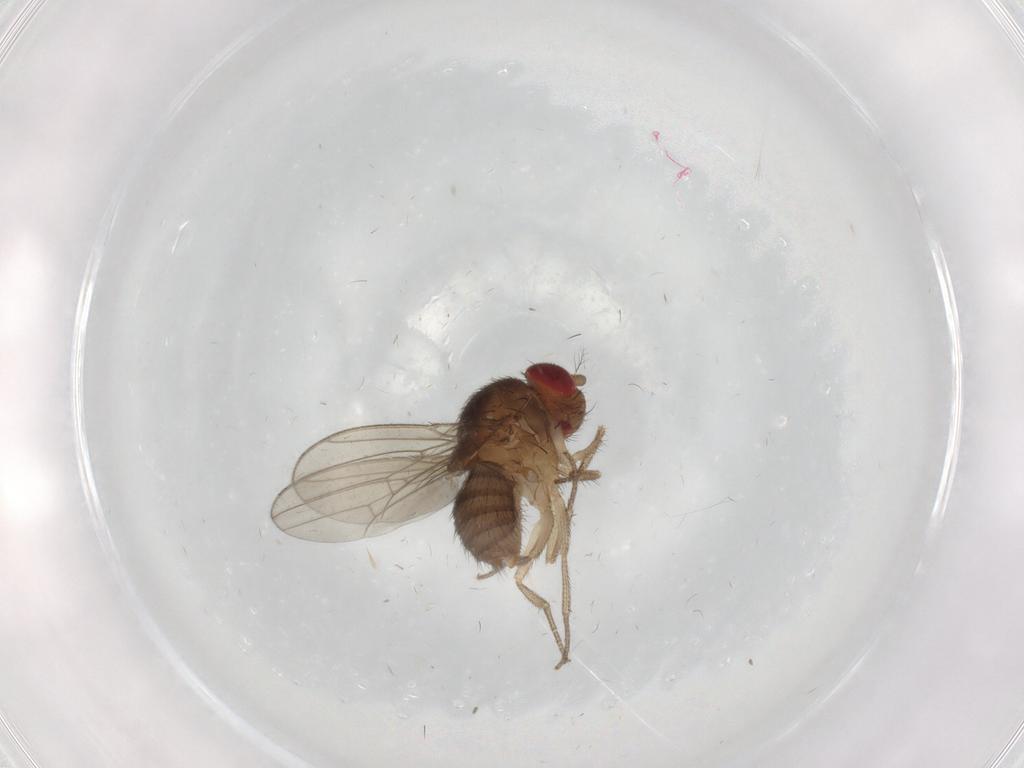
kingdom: Animalia
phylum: Arthropoda
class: Insecta
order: Diptera
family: Drosophilidae
